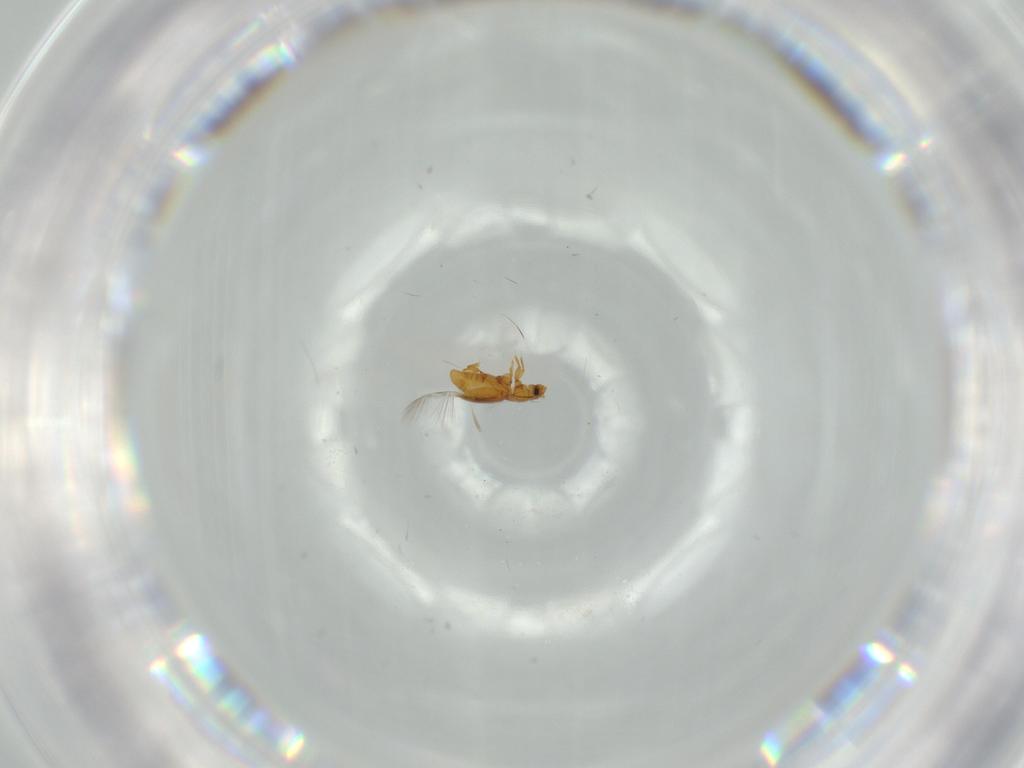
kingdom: Animalia
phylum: Arthropoda
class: Insecta
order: Coleoptera
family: Ptiliidae
